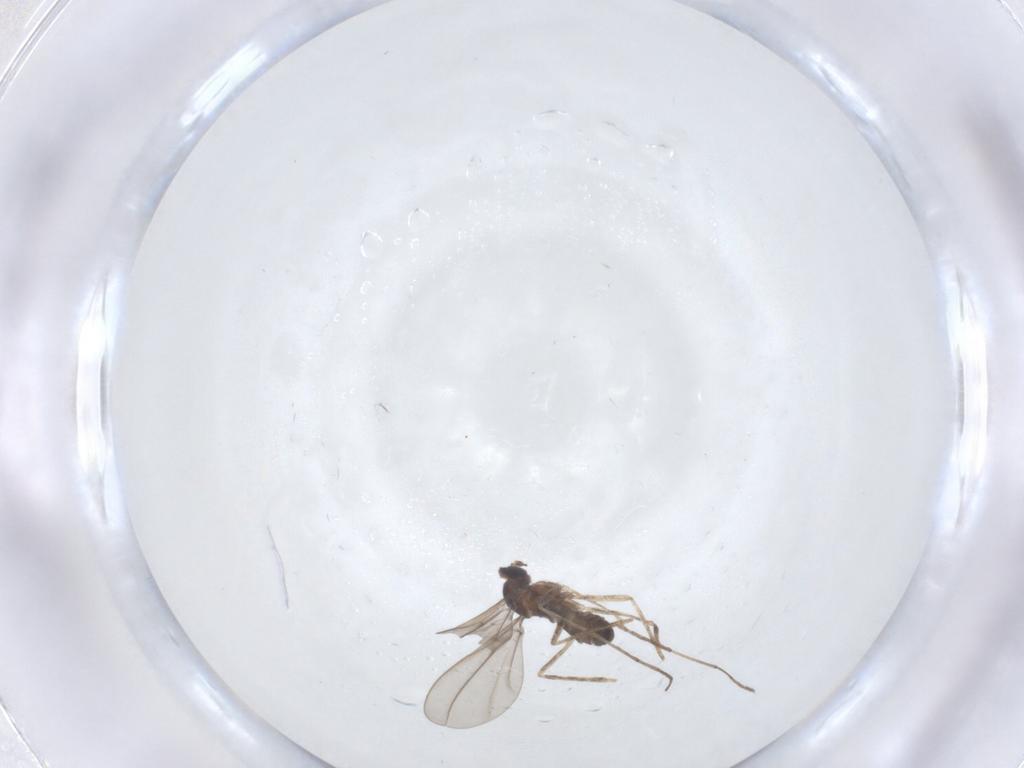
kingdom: Animalia
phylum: Arthropoda
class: Insecta
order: Diptera
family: Cecidomyiidae
